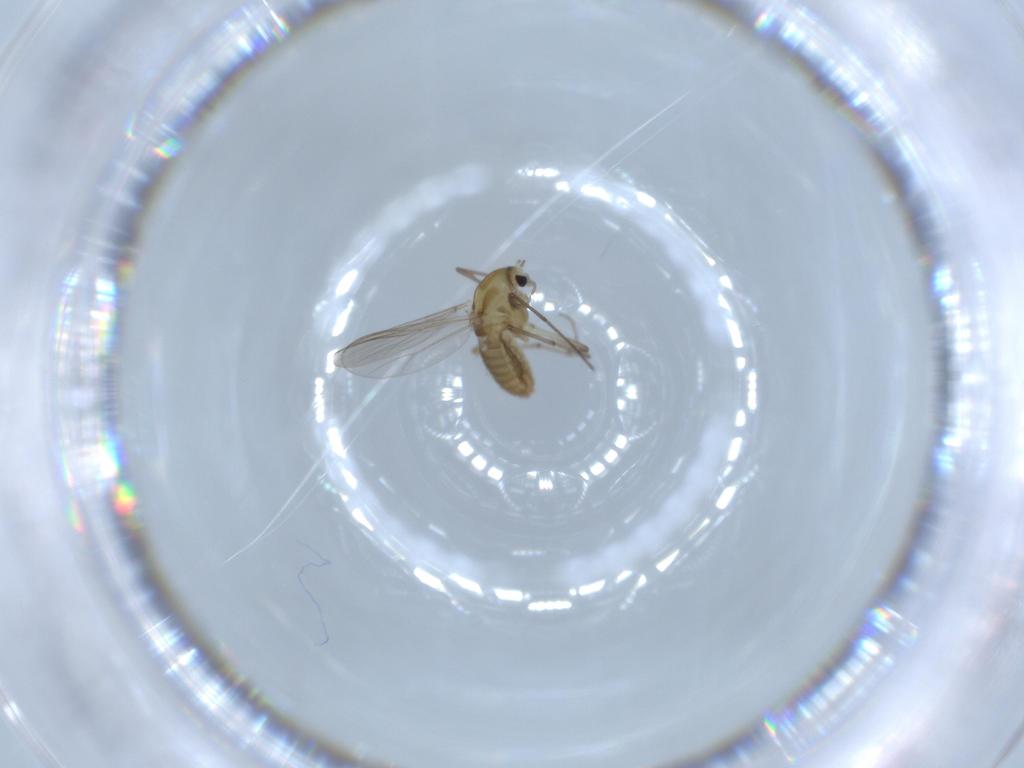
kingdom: Animalia
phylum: Arthropoda
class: Insecta
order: Diptera
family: Chironomidae
